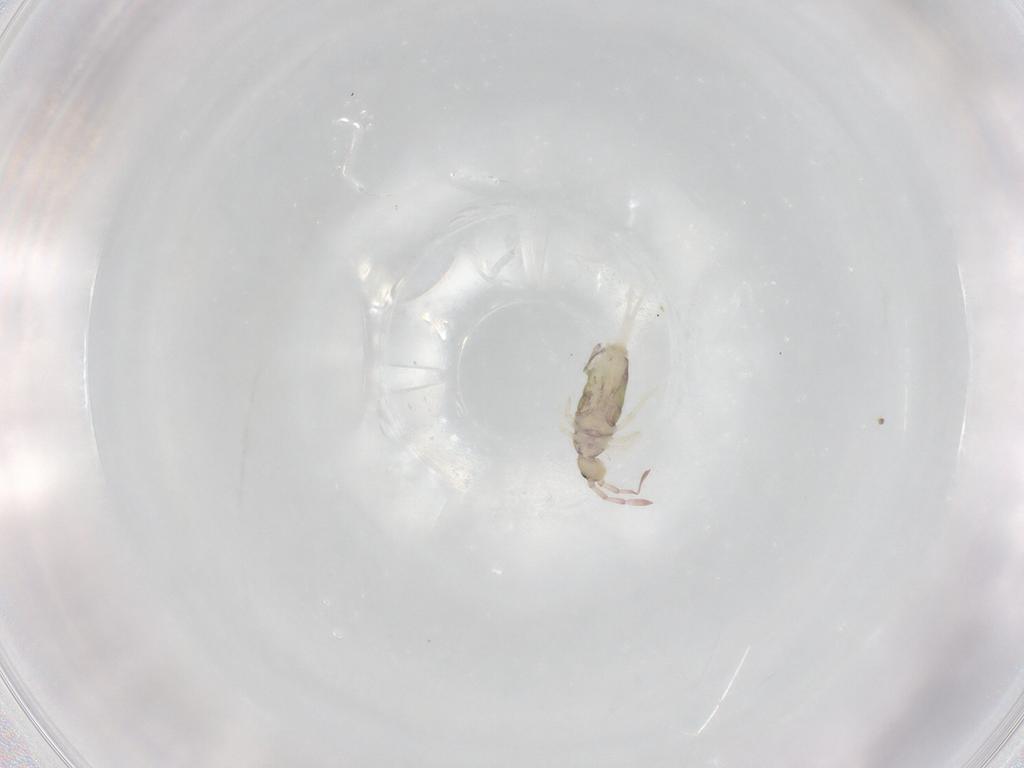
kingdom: Animalia
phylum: Arthropoda
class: Collembola
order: Entomobryomorpha
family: Entomobryidae
